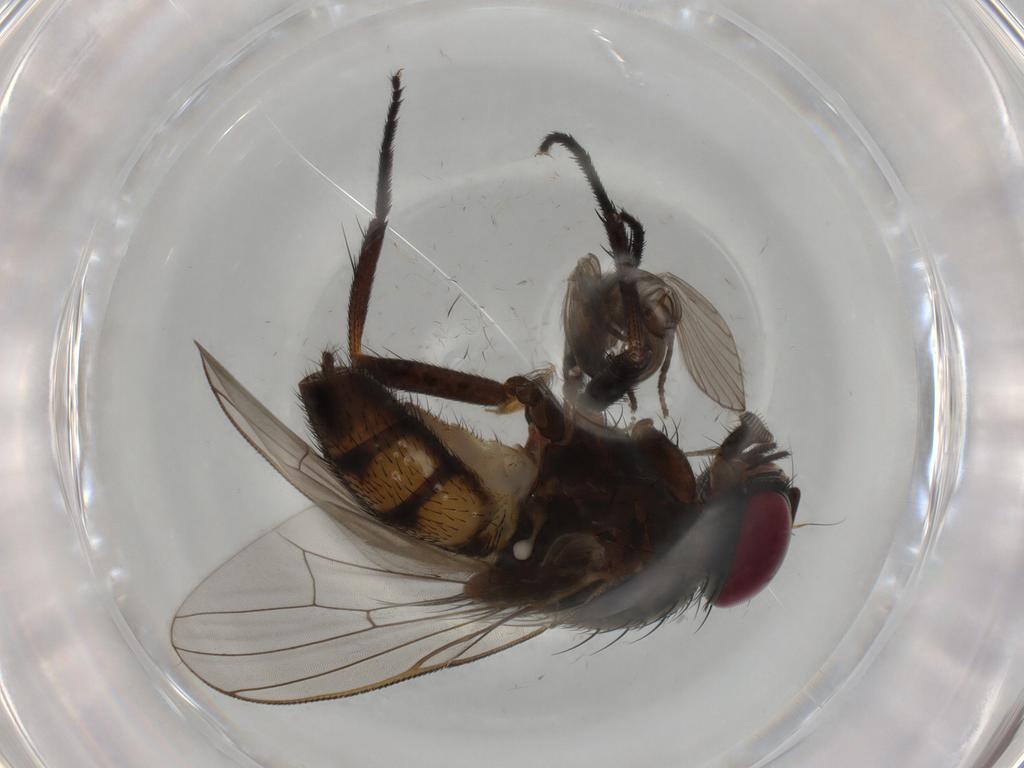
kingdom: Animalia
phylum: Arthropoda
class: Insecta
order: Diptera
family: Fannia
